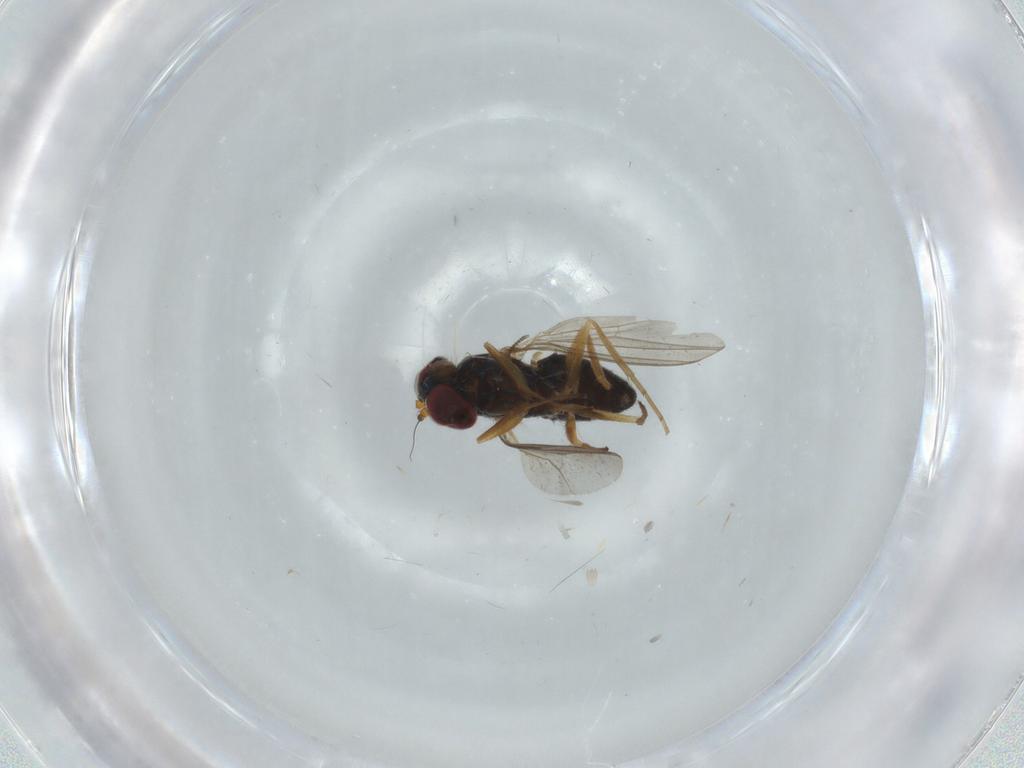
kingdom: Animalia
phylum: Arthropoda
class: Insecta
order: Diptera
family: Cecidomyiidae
